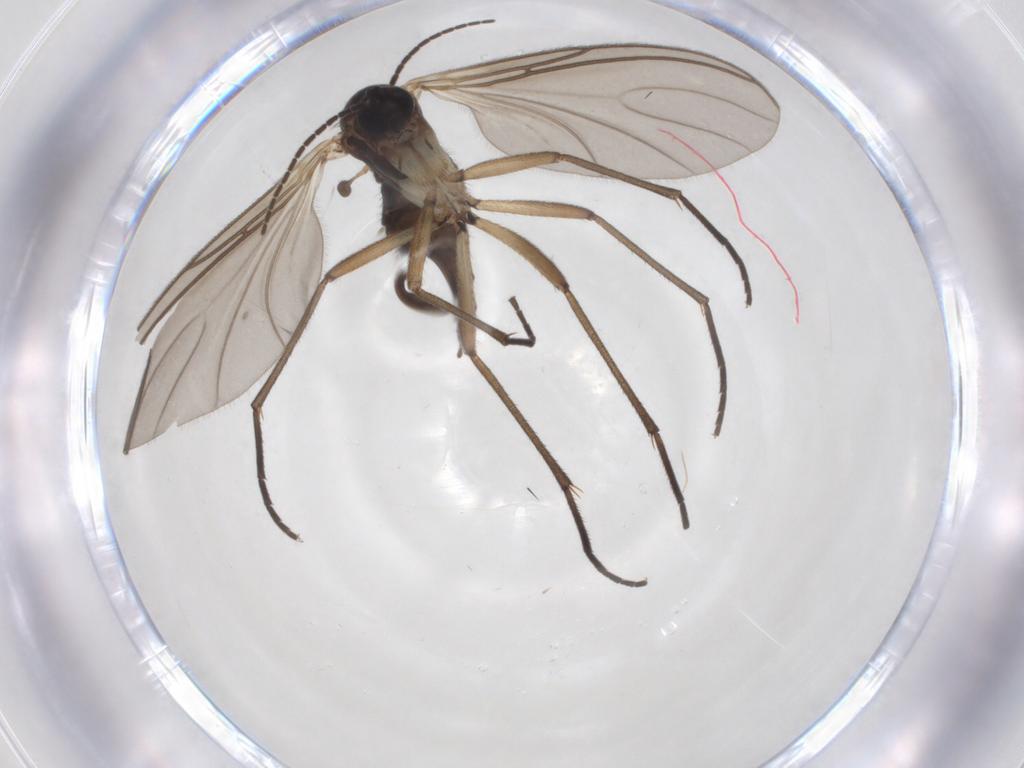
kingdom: Animalia
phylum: Arthropoda
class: Insecta
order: Diptera
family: Sciaridae
